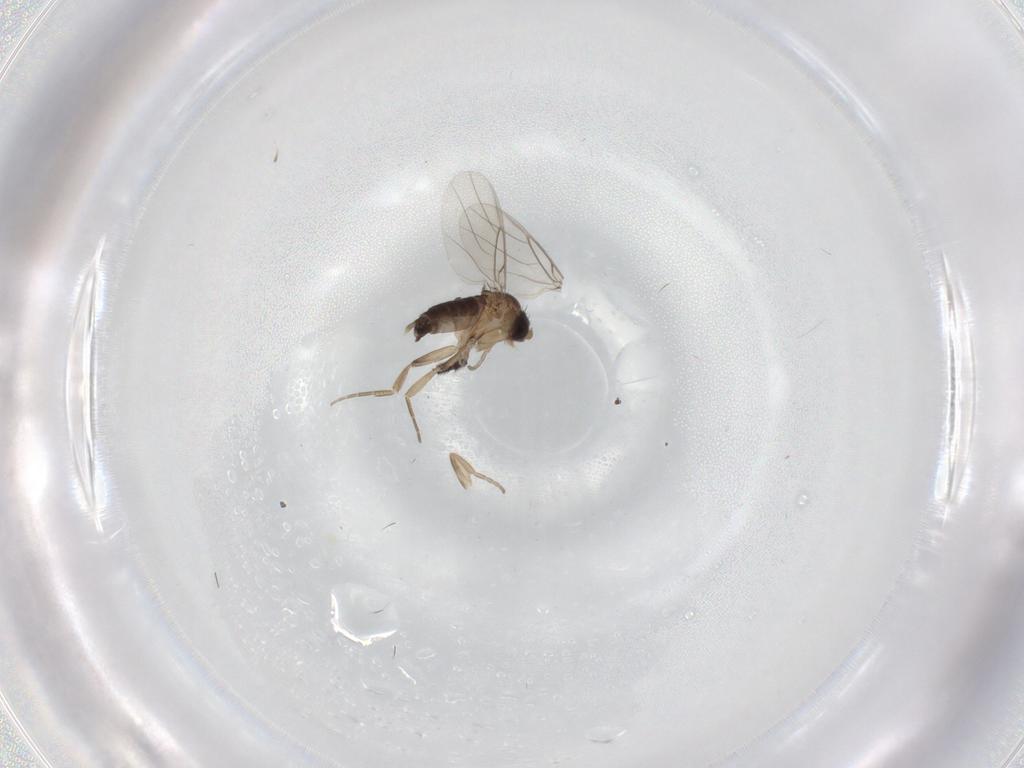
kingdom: Animalia
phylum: Arthropoda
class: Insecta
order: Diptera
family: Phoridae
